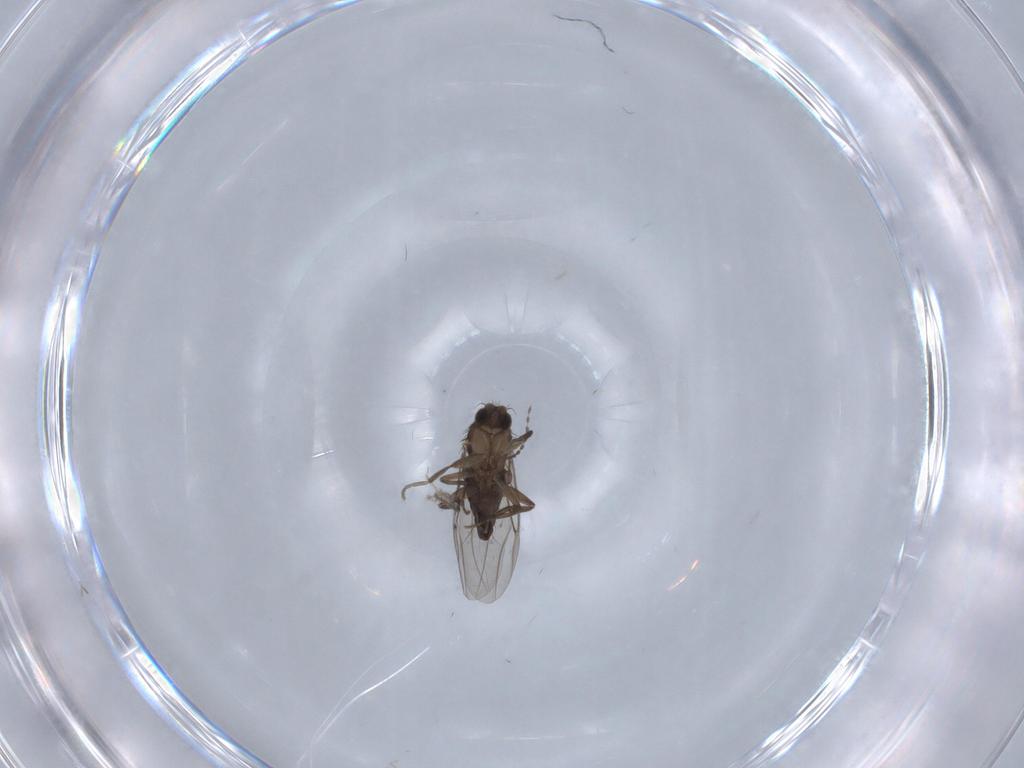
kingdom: Animalia
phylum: Arthropoda
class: Insecta
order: Diptera
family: Phoridae
